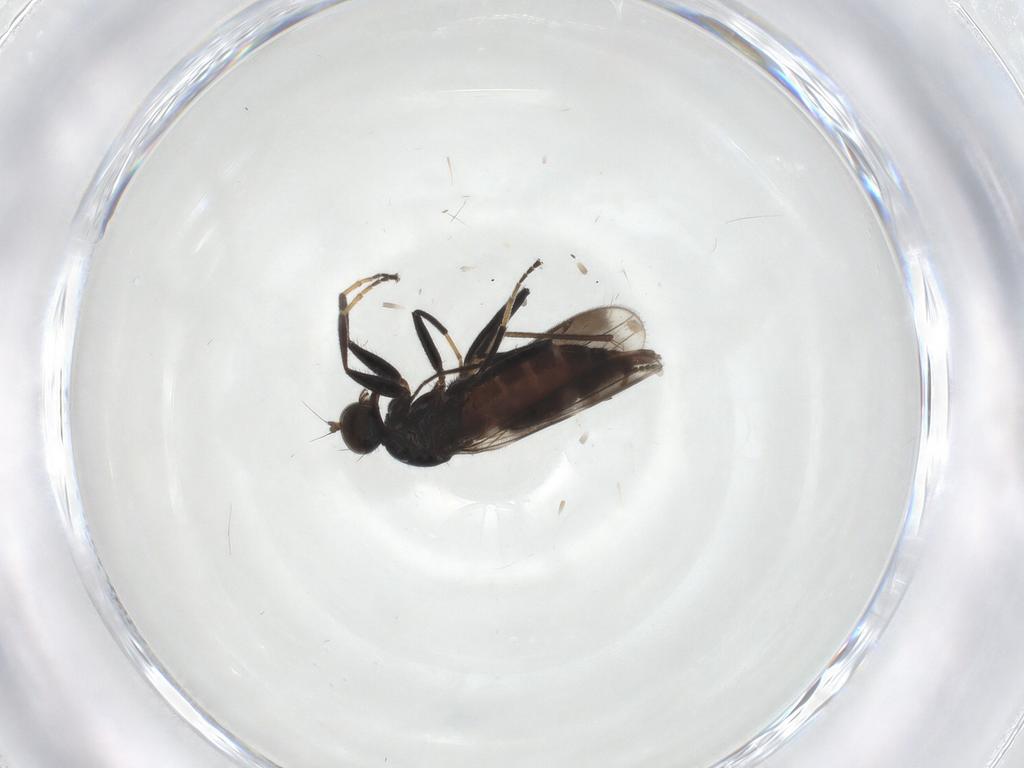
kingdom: Animalia
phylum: Arthropoda
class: Insecta
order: Diptera
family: Hybotidae
